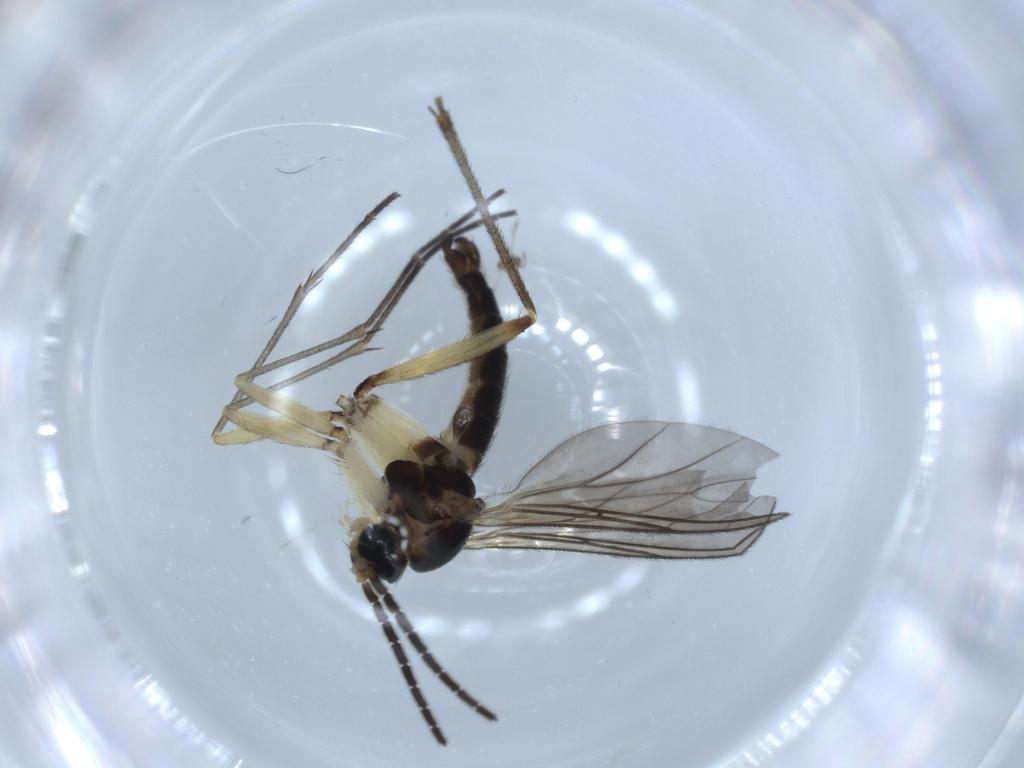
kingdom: Animalia
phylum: Arthropoda
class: Insecta
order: Diptera
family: Sciaridae
